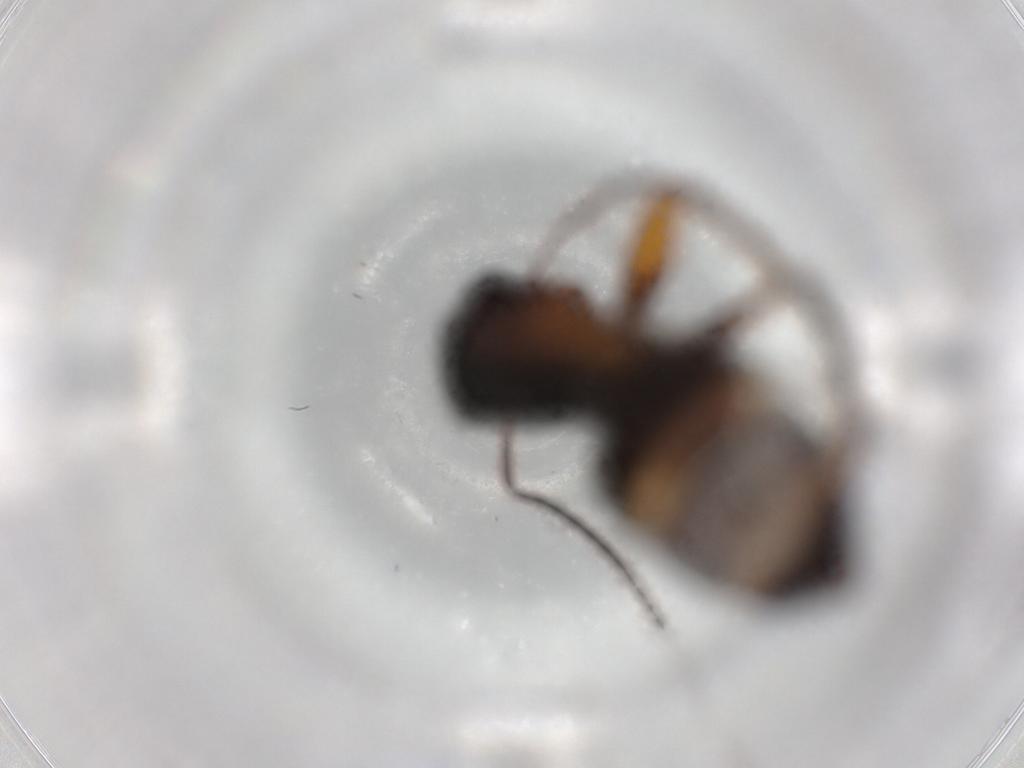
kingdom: Animalia
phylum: Arthropoda
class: Insecta
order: Hymenoptera
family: Formicidae
